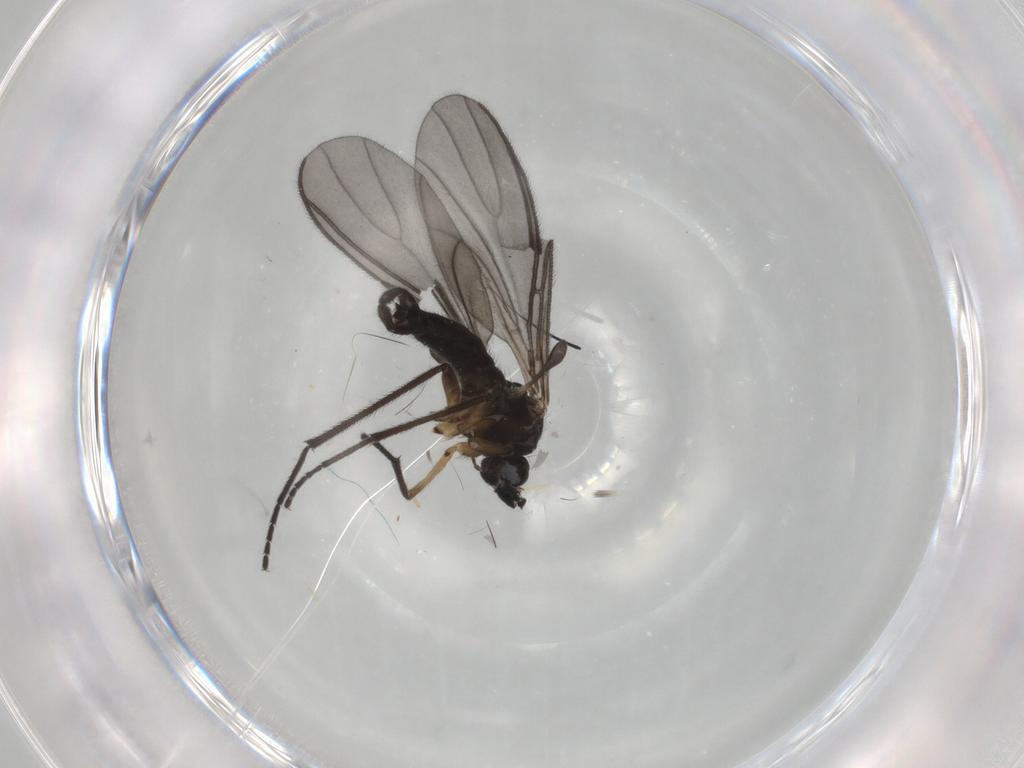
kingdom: Animalia
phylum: Arthropoda
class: Insecta
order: Diptera
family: Sciaridae
